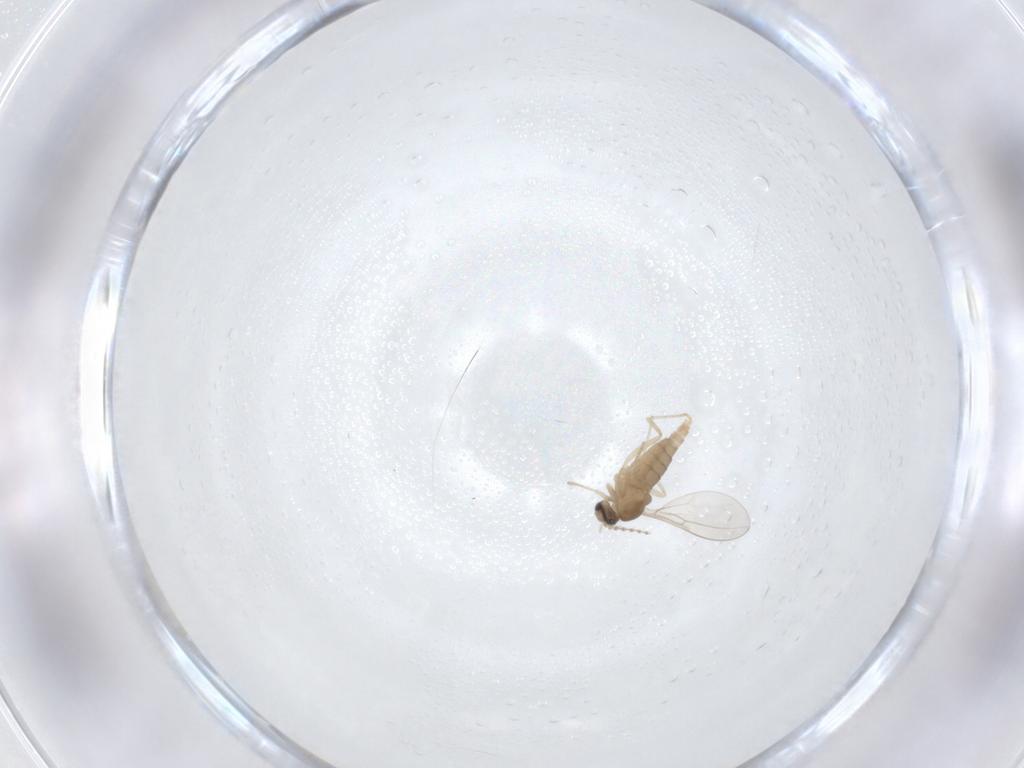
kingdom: Animalia
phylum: Arthropoda
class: Insecta
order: Diptera
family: Cecidomyiidae
